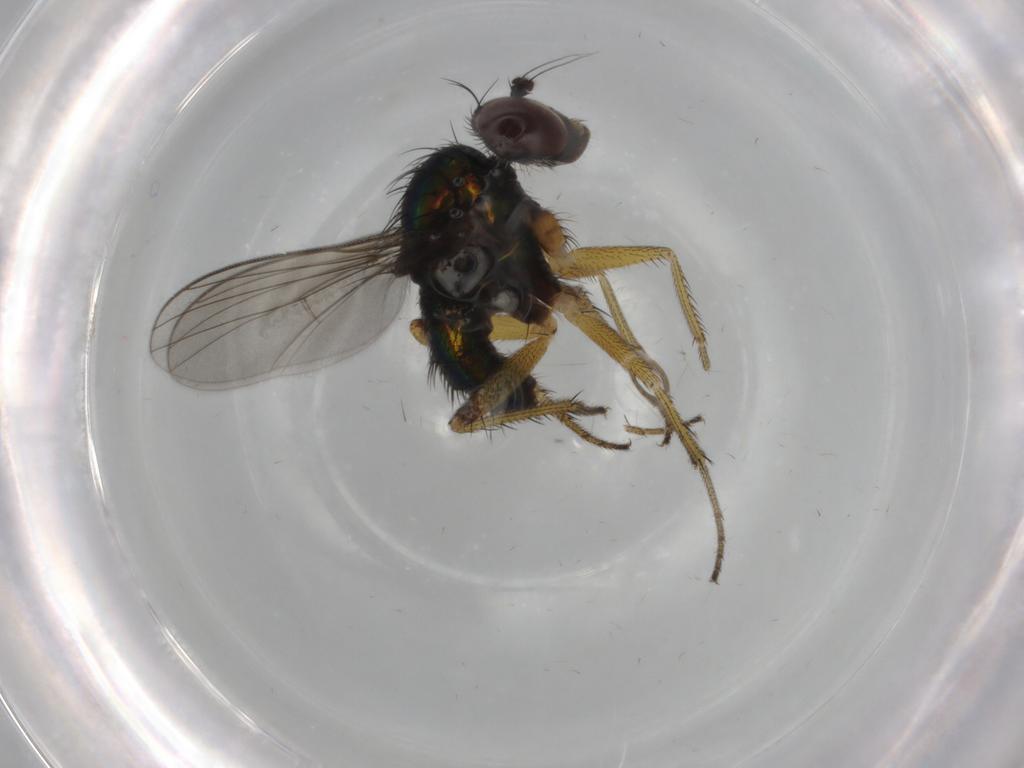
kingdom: Animalia
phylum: Arthropoda
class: Insecta
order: Diptera
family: Dolichopodidae
